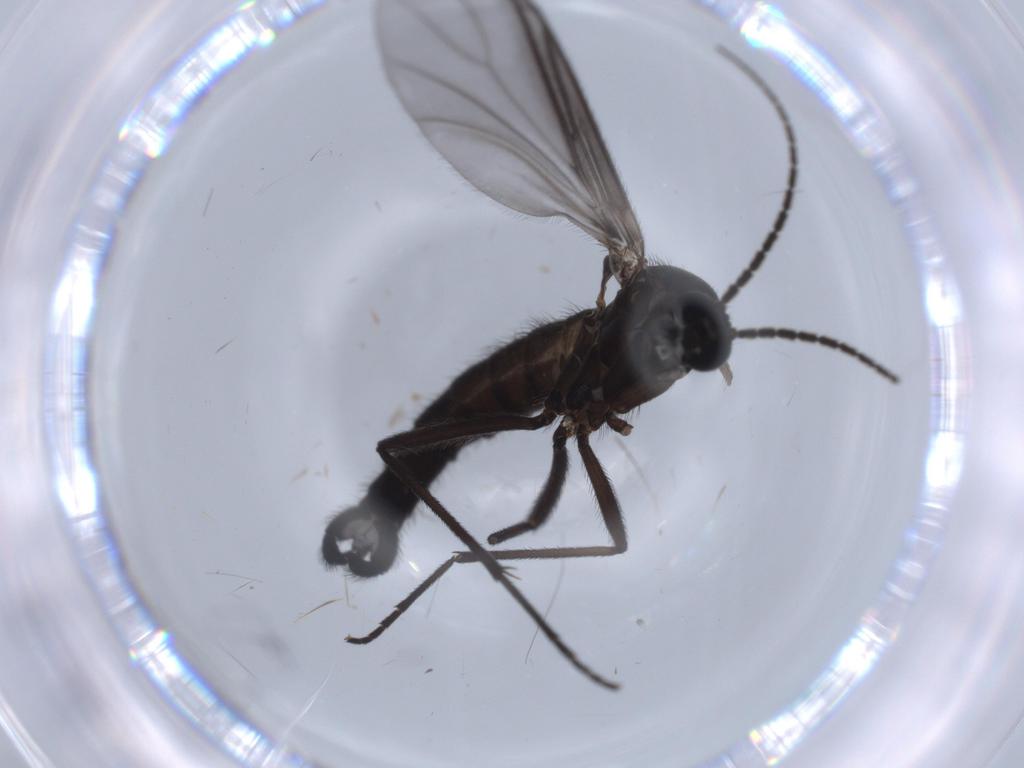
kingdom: Animalia
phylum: Arthropoda
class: Insecta
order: Diptera
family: Cecidomyiidae
